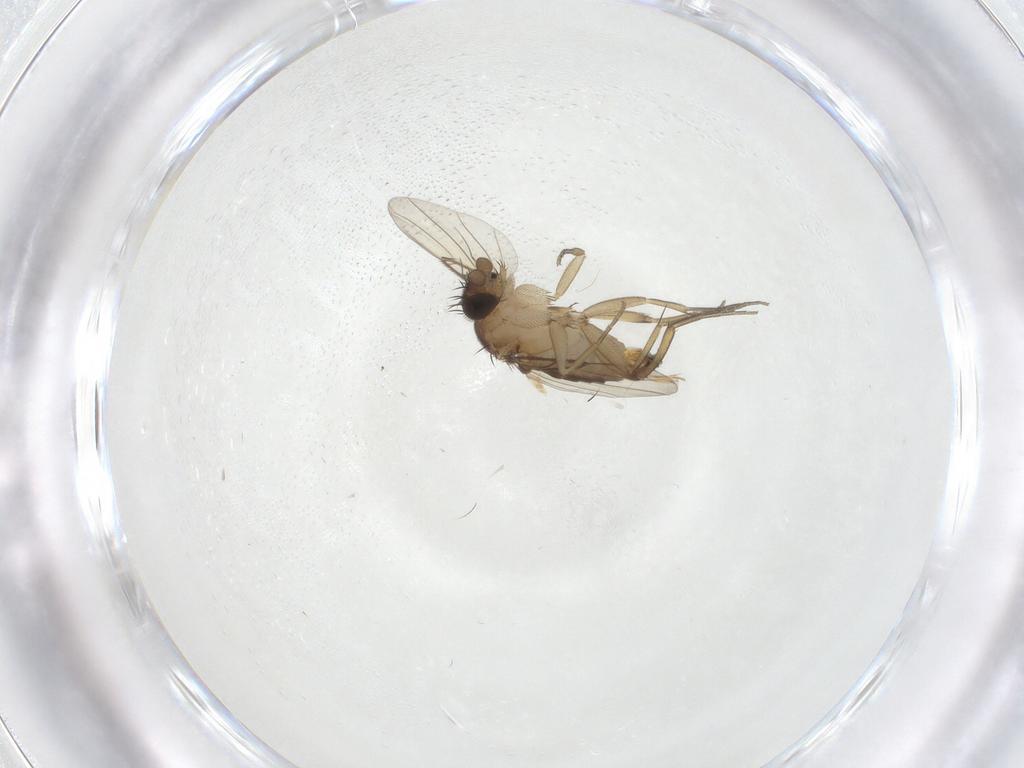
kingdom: Animalia
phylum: Arthropoda
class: Insecta
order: Diptera
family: Phoridae
